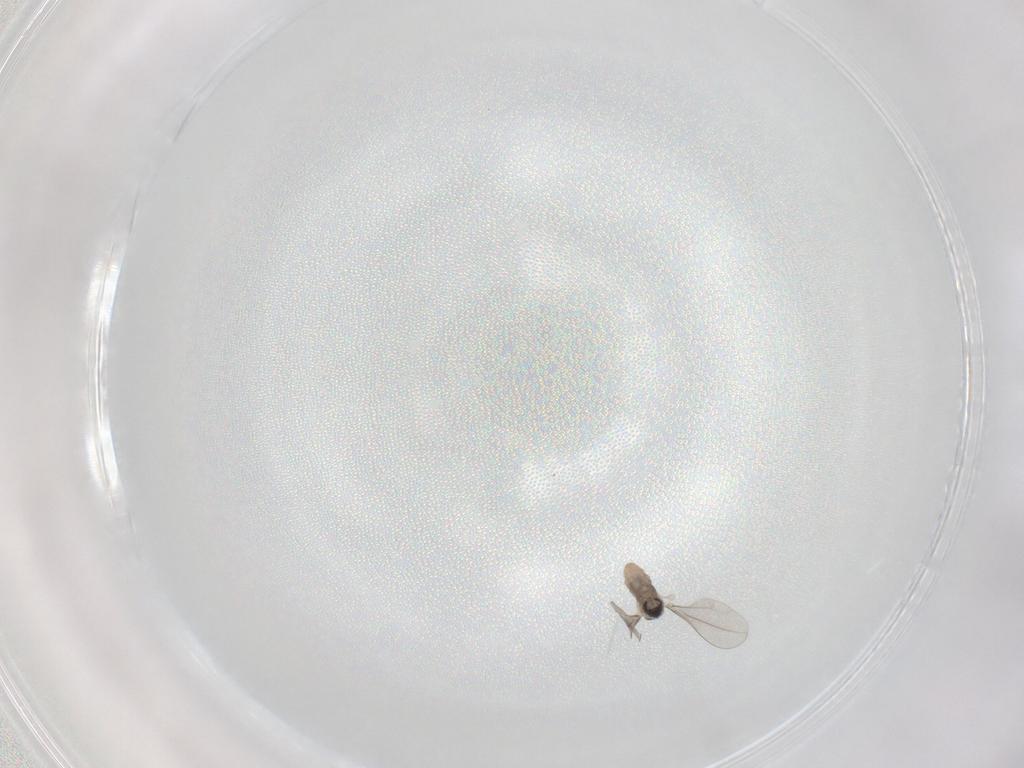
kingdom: Animalia
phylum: Arthropoda
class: Insecta
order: Diptera
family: Cecidomyiidae
